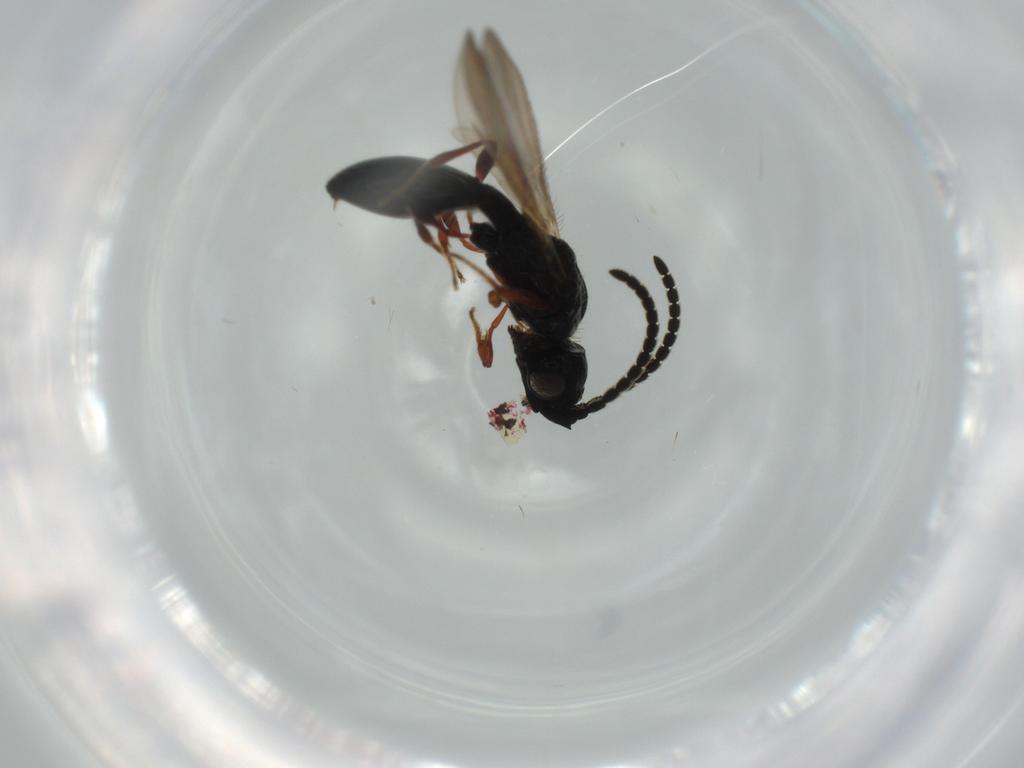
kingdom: Animalia
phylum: Arthropoda
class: Insecta
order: Hymenoptera
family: Diapriidae
